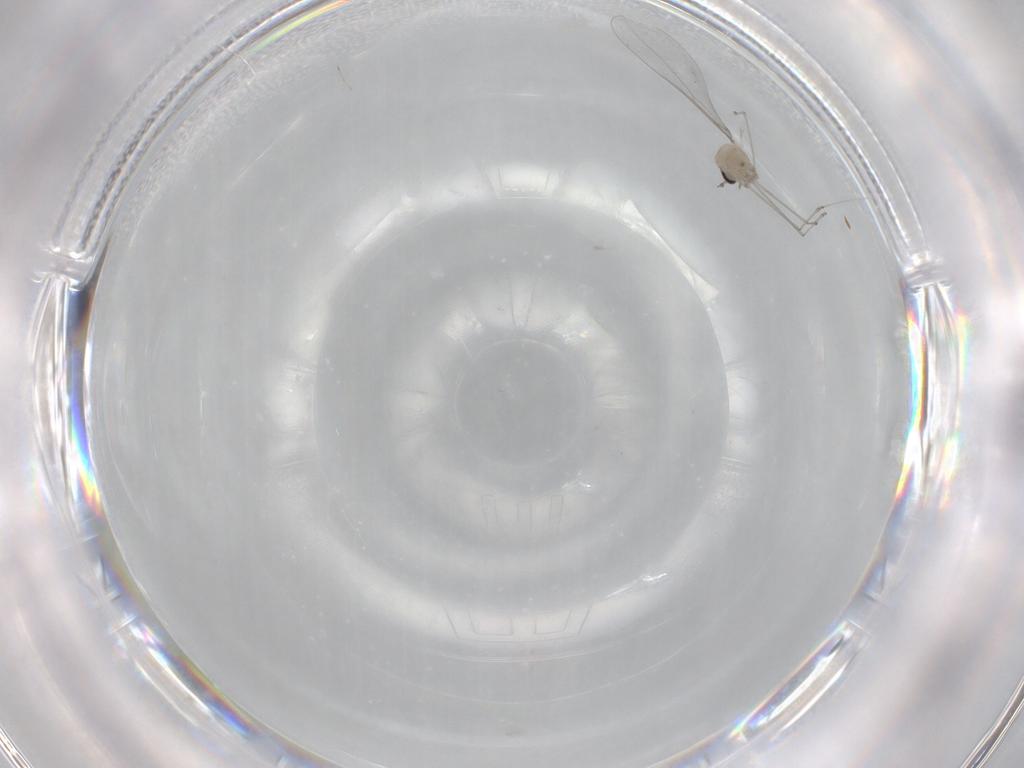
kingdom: Animalia
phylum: Arthropoda
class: Insecta
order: Diptera
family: Cecidomyiidae
